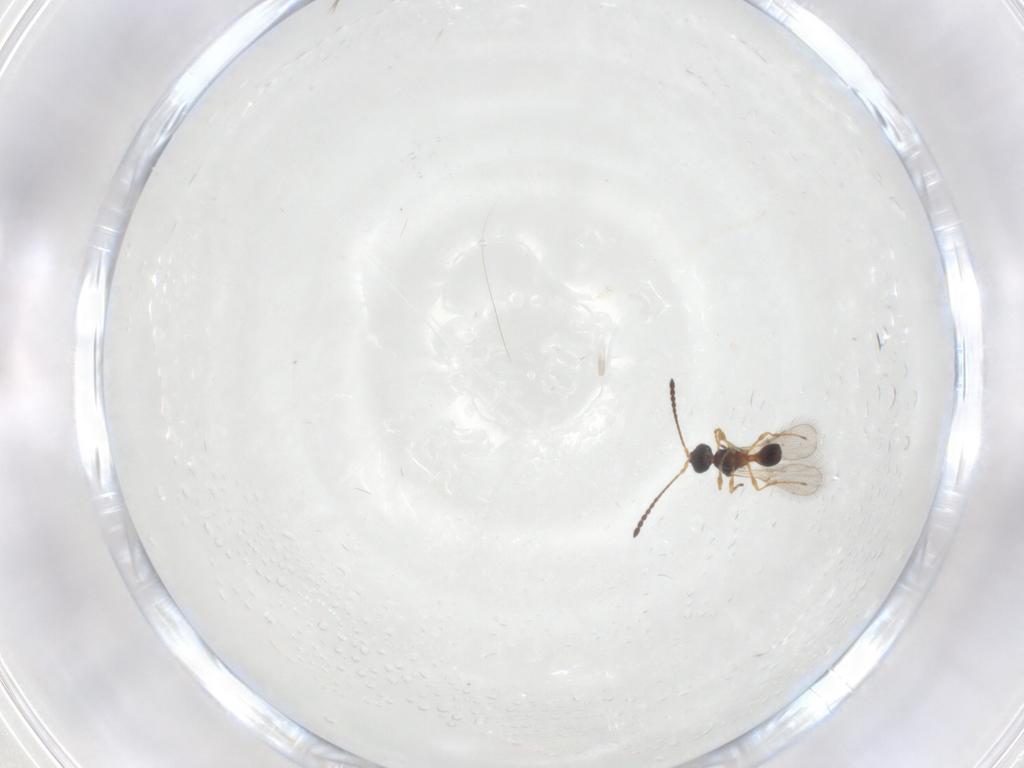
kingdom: Animalia
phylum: Arthropoda
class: Insecta
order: Hymenoptera
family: Diapriidae
